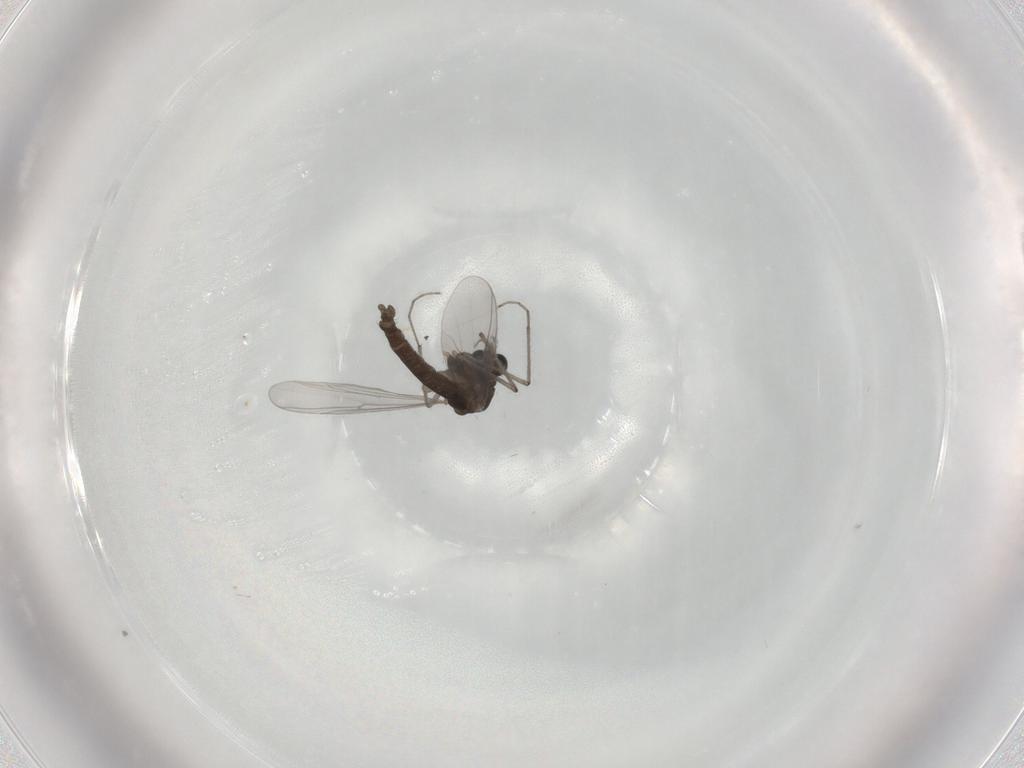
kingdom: Animalia
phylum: Arthropoda
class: Insecta
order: Diptera
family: Chironomidae
